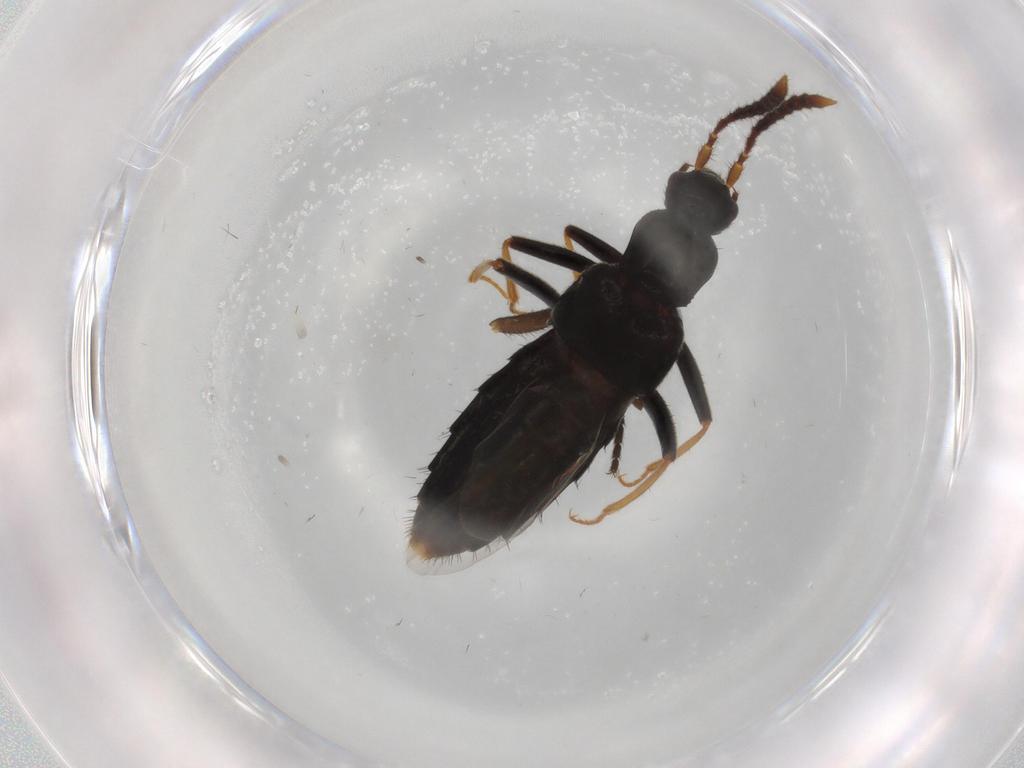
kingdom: Animalia
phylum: Arthropoda
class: Insecta
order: Coleoptera
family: Staphylinidae
